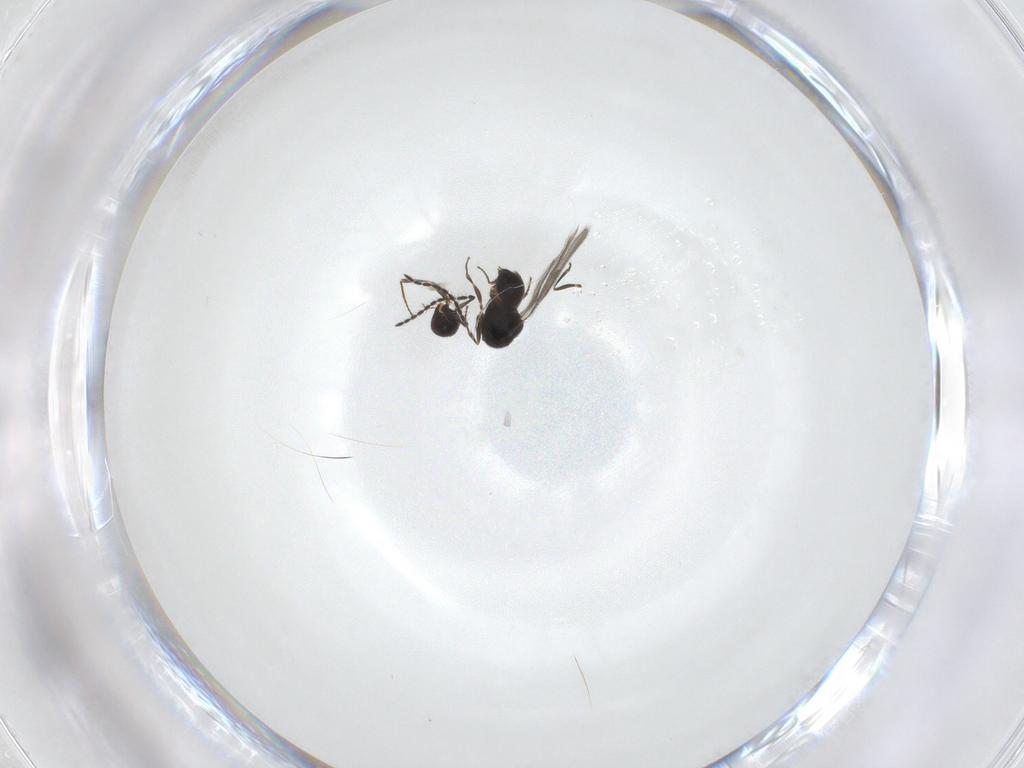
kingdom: Animalia
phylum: Arthropoda
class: Insecta
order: Hymenoptera
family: Ceraphronidae
